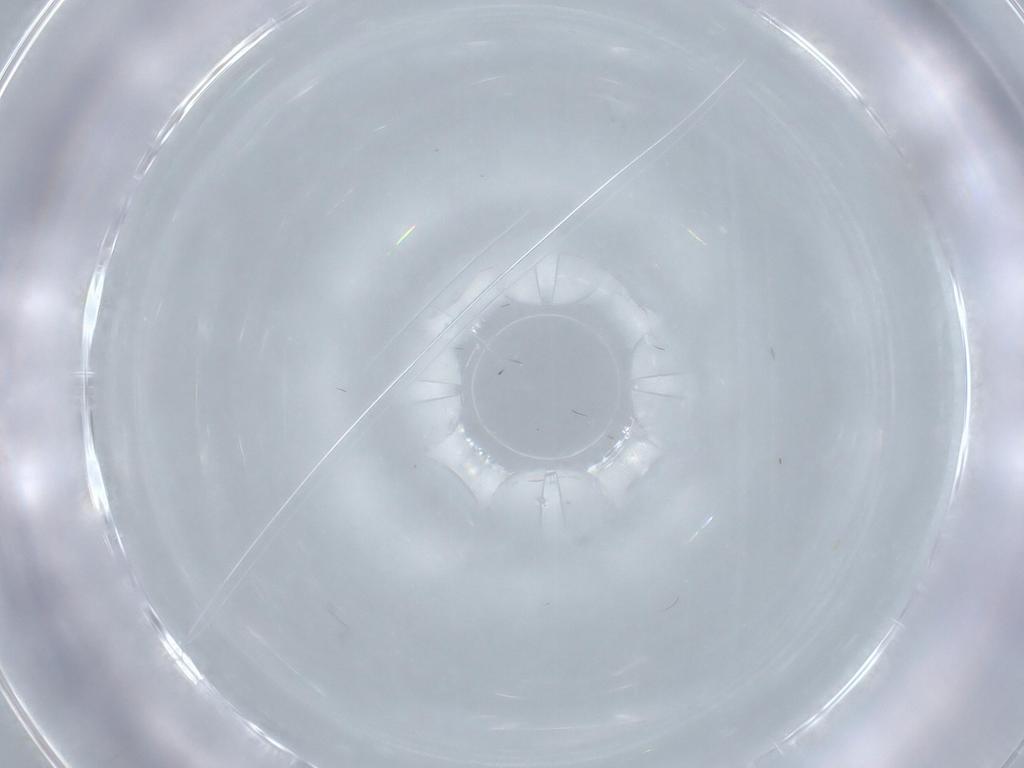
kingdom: Animalia
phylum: Arthropoda
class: Insecta
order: Diptera
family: Scatopsidae
